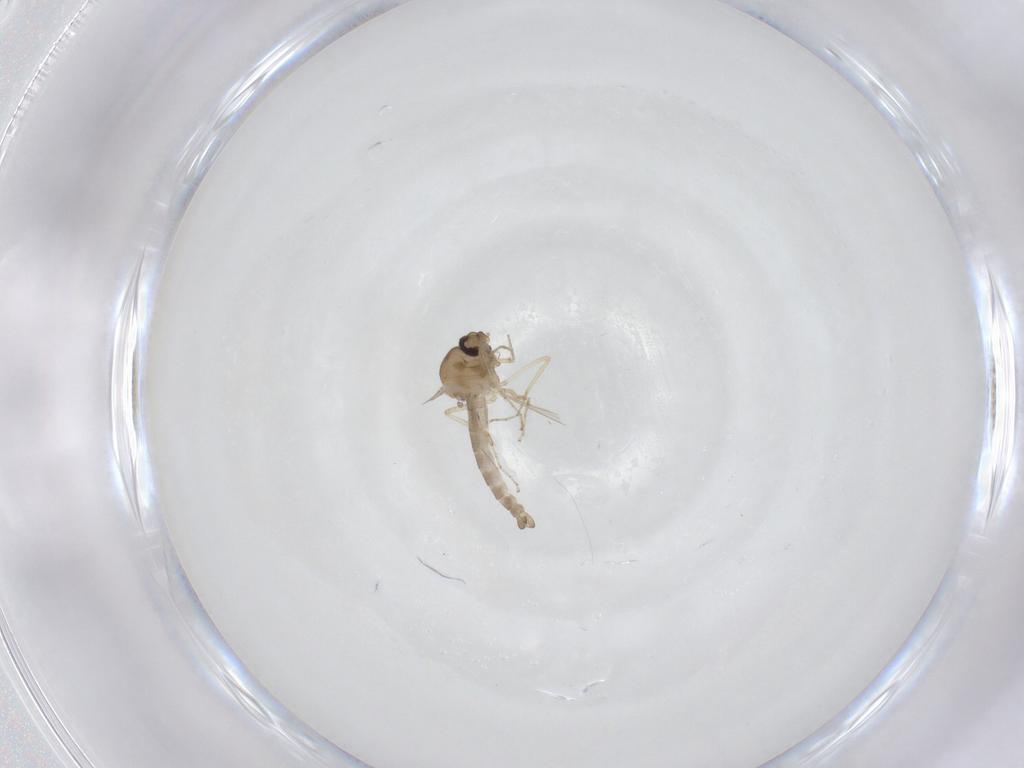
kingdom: Animalia
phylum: Arthropoda
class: Insecta
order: Diptera
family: Ceratopogonidae
